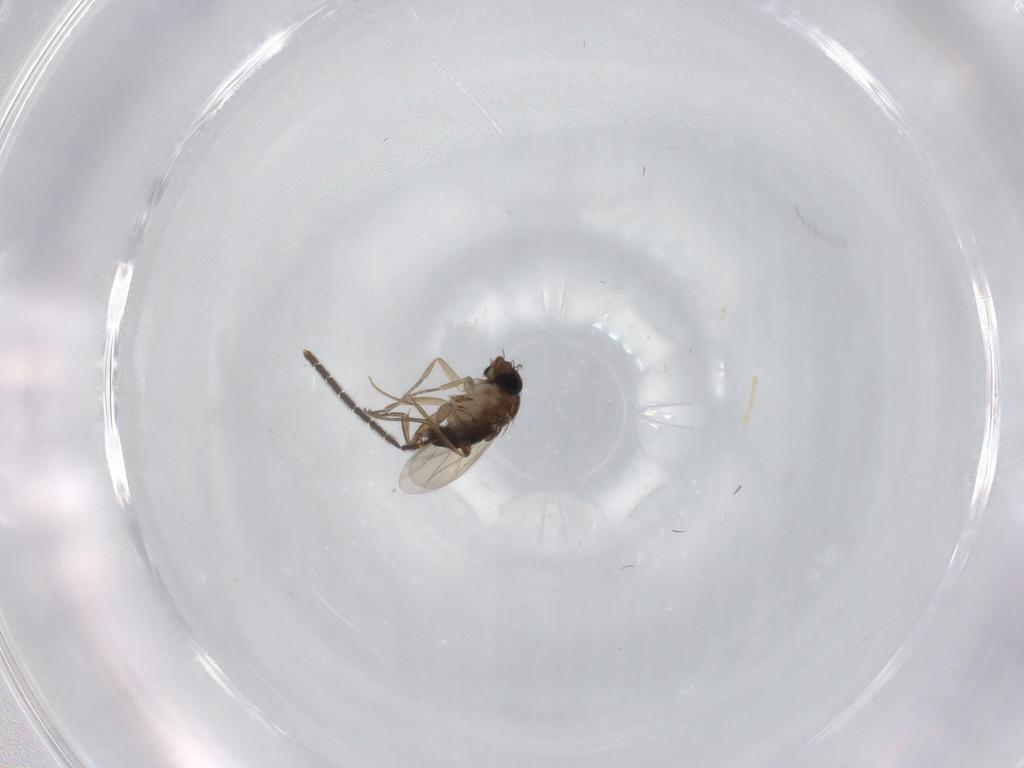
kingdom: Animalia
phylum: Arthropoda
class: Insecta
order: Diptera
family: Phoridae
